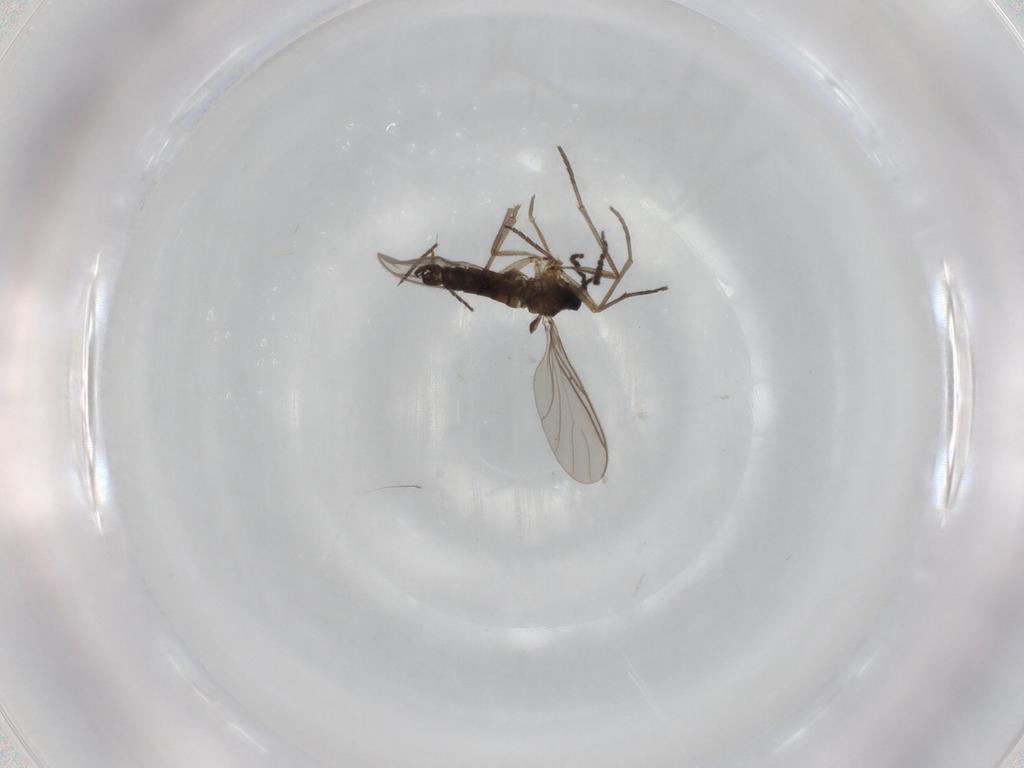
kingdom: Animalia
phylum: Arthropoda
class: Insecta
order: Diptera
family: Sciaridae
